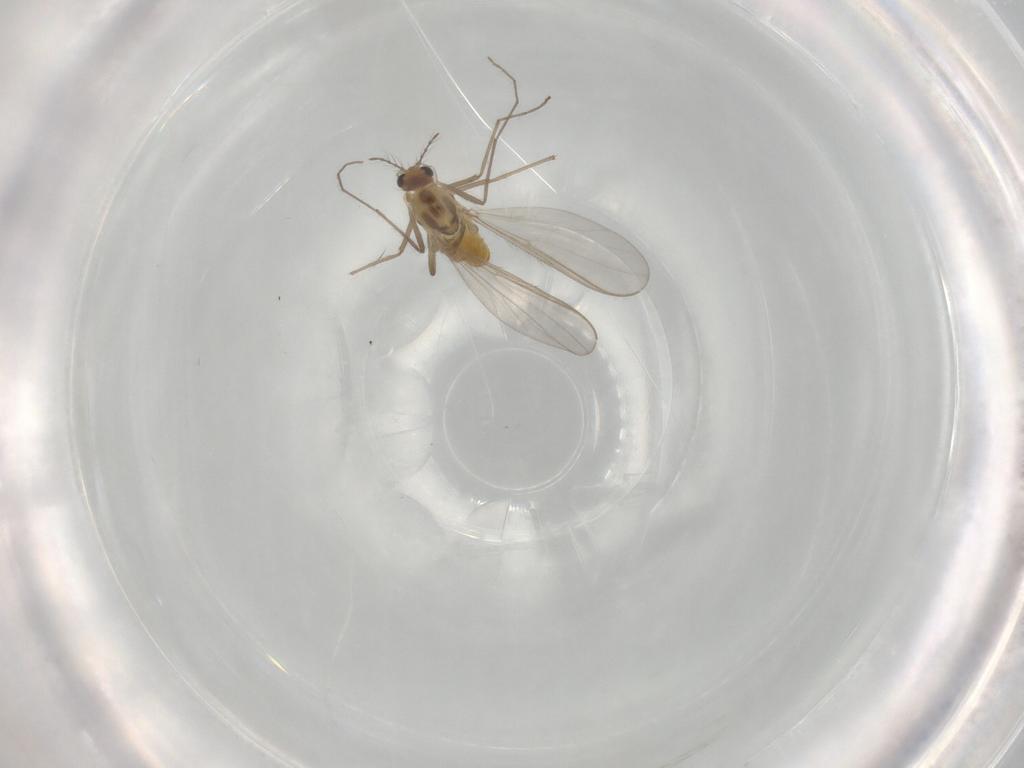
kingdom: Animalia
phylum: Arthropoda
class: Insecta
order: Diptera
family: Chironomidae
